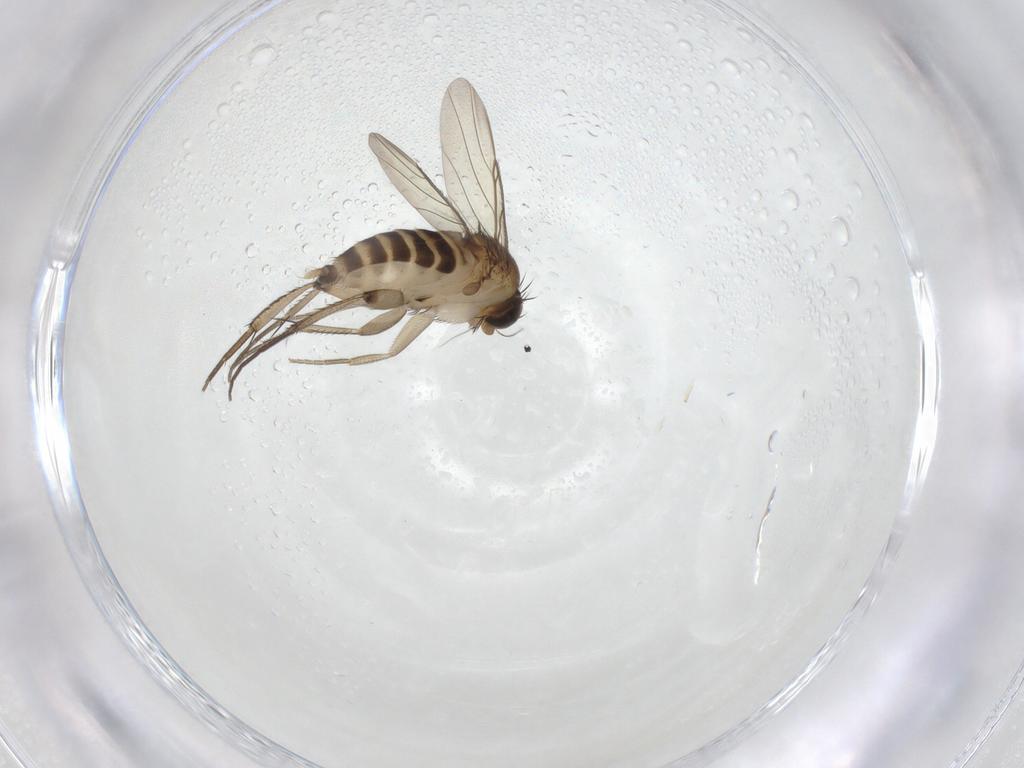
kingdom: Animalia
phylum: Arthropoda
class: Insecta
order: Diptera
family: Phoridae
